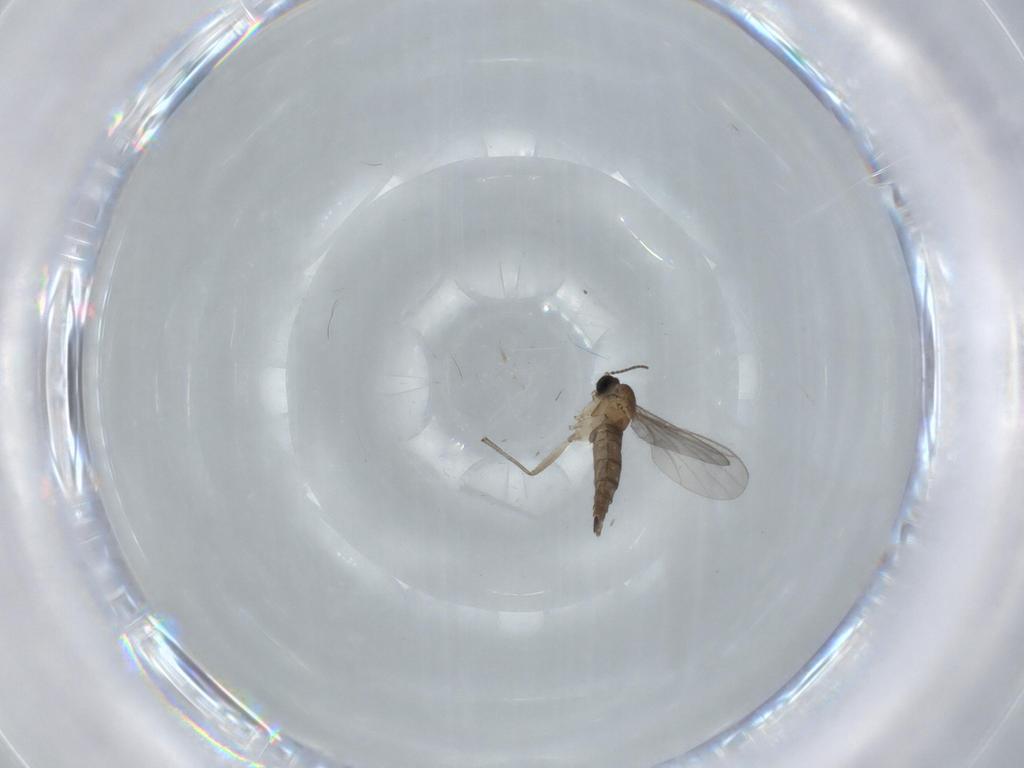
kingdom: Animalia
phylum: Arthropoda
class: Insecta
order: Diptera
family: Sciaridae
